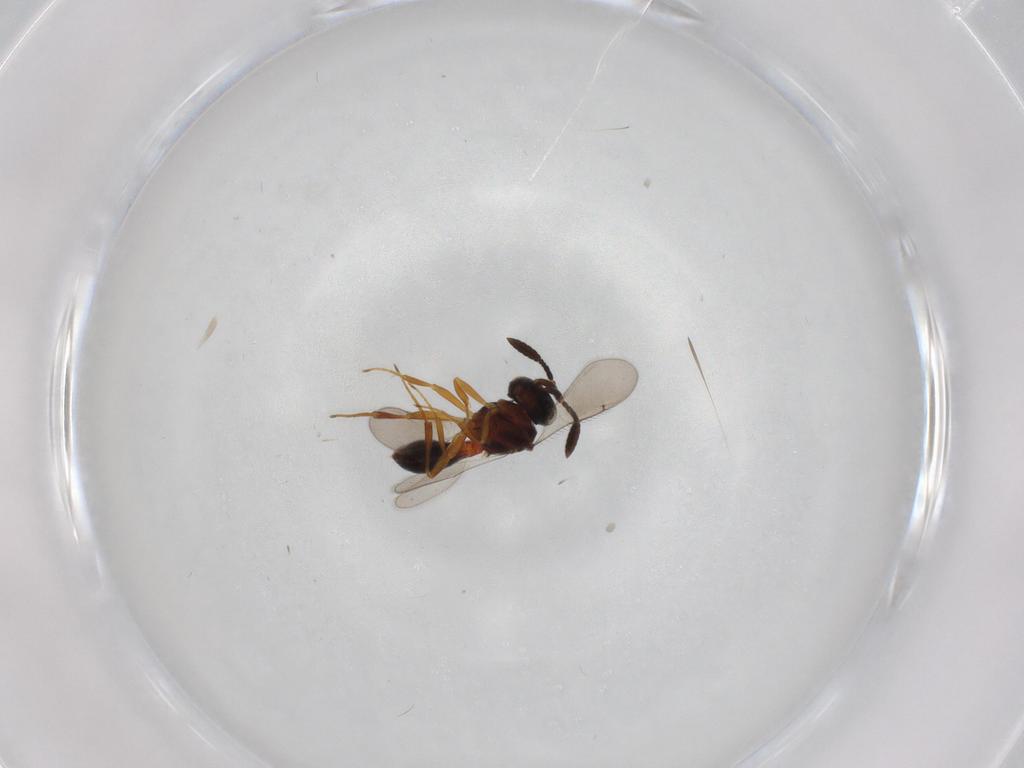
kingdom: Animalia
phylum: Arthropoda
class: Insecta
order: Hymenoptera
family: Scelionidae
